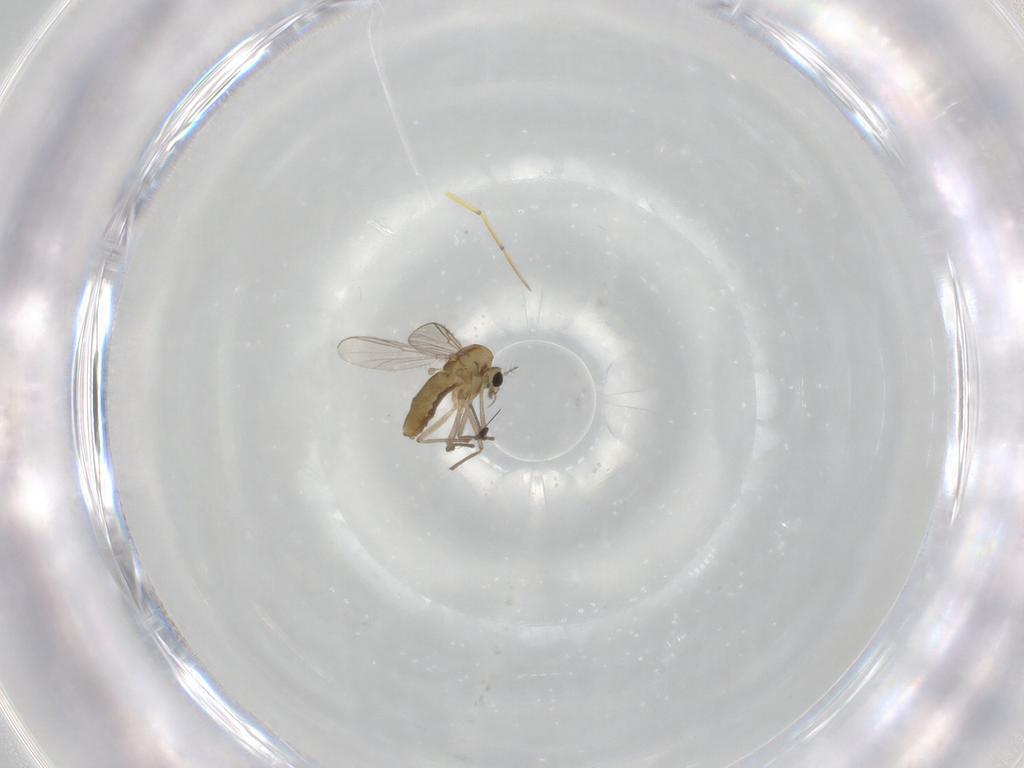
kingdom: Animalia
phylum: Arthropoda
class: Insecta
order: Diptera
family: Chironomidae
